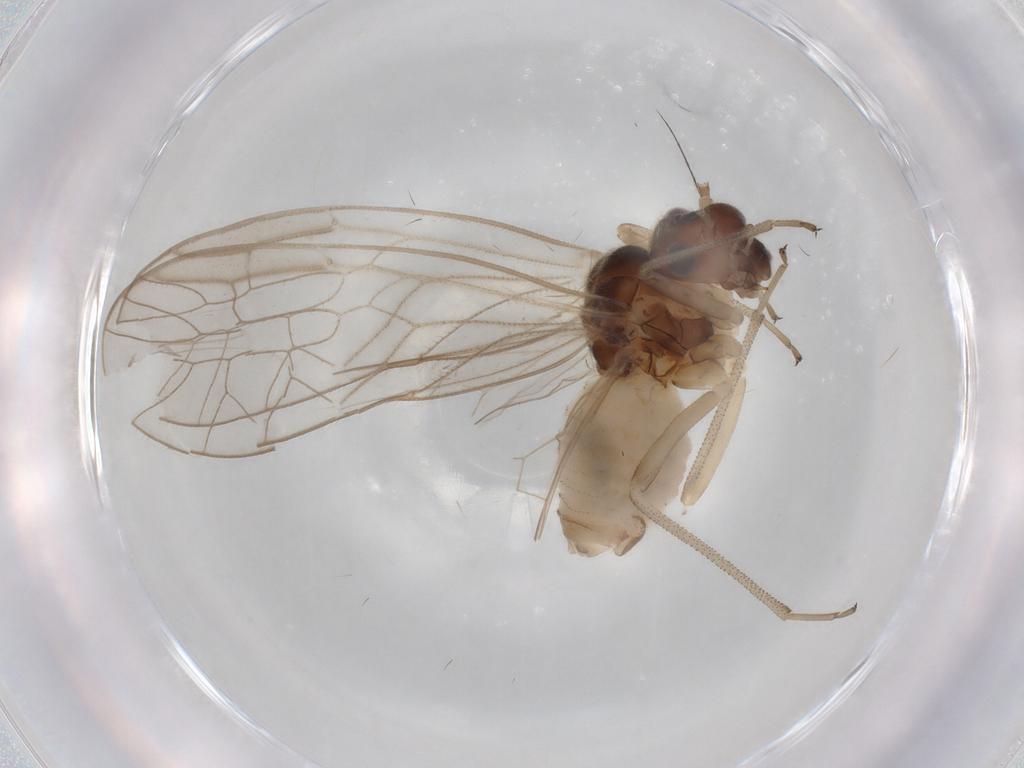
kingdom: Animalia
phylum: Arthropoda
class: Insecta
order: Psocodea
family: Stenopsocidae
